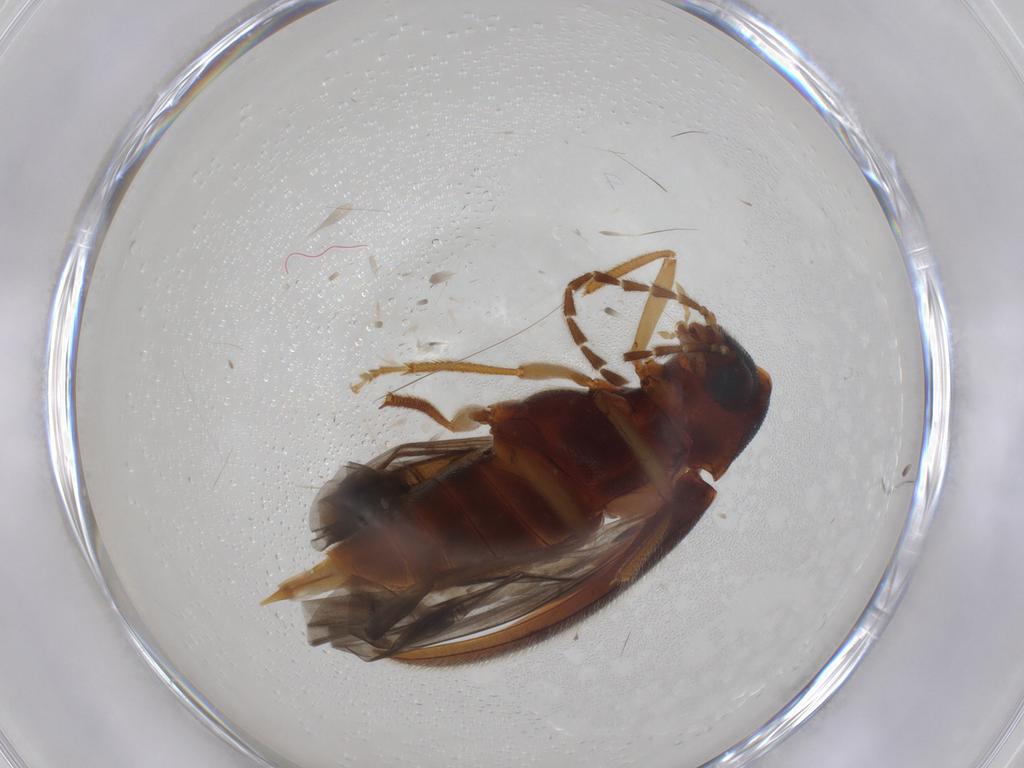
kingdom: Animalia
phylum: Arthropoda
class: Insecta
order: Coleoptera
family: Ptilodactylidae
